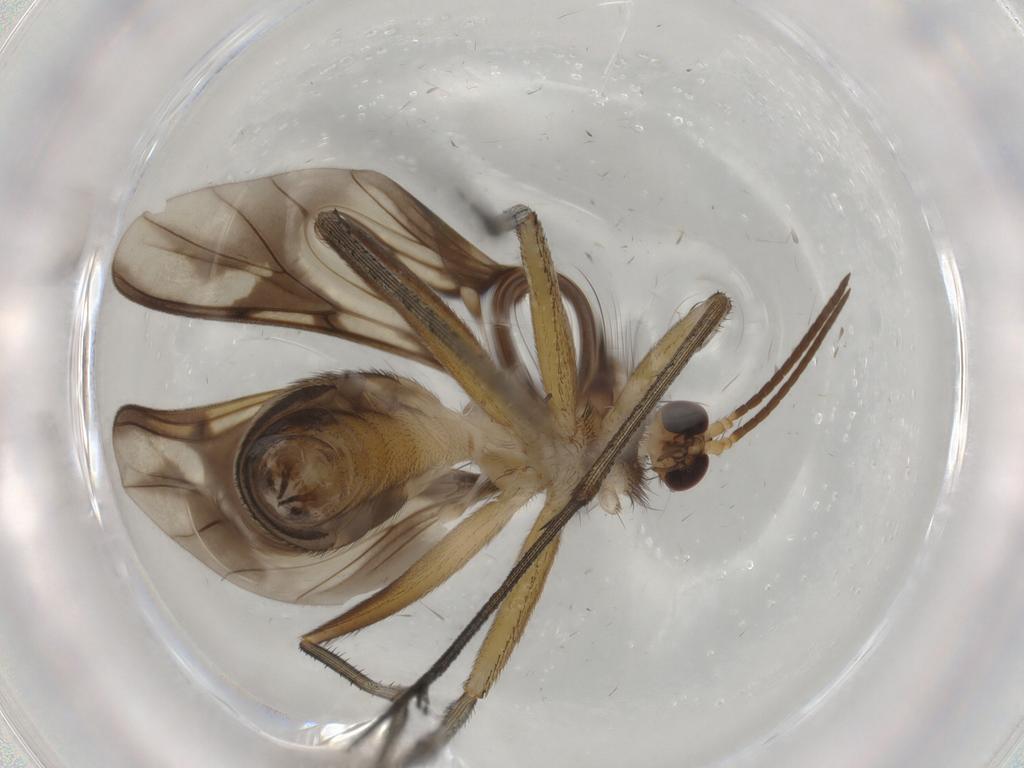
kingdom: Animalia
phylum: Arthropoda
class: Insecta
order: Diptera
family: Mycetophilidae
